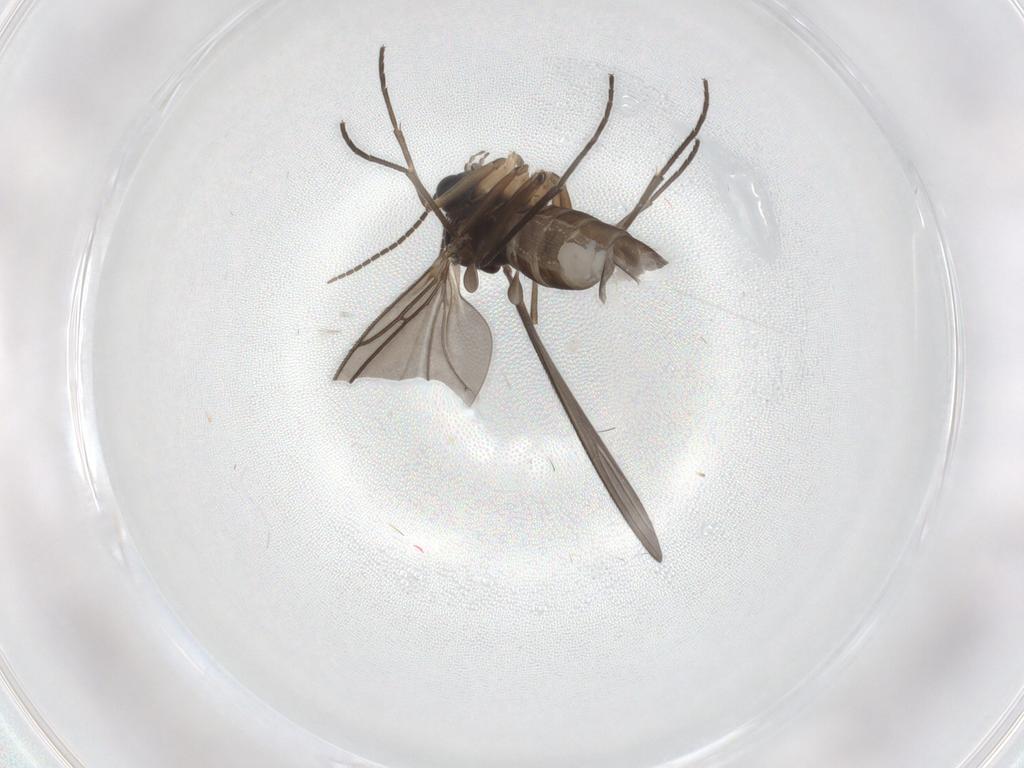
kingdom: Animalia
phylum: Arthropoda
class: Insecta
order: Diptera
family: Sciaridae
